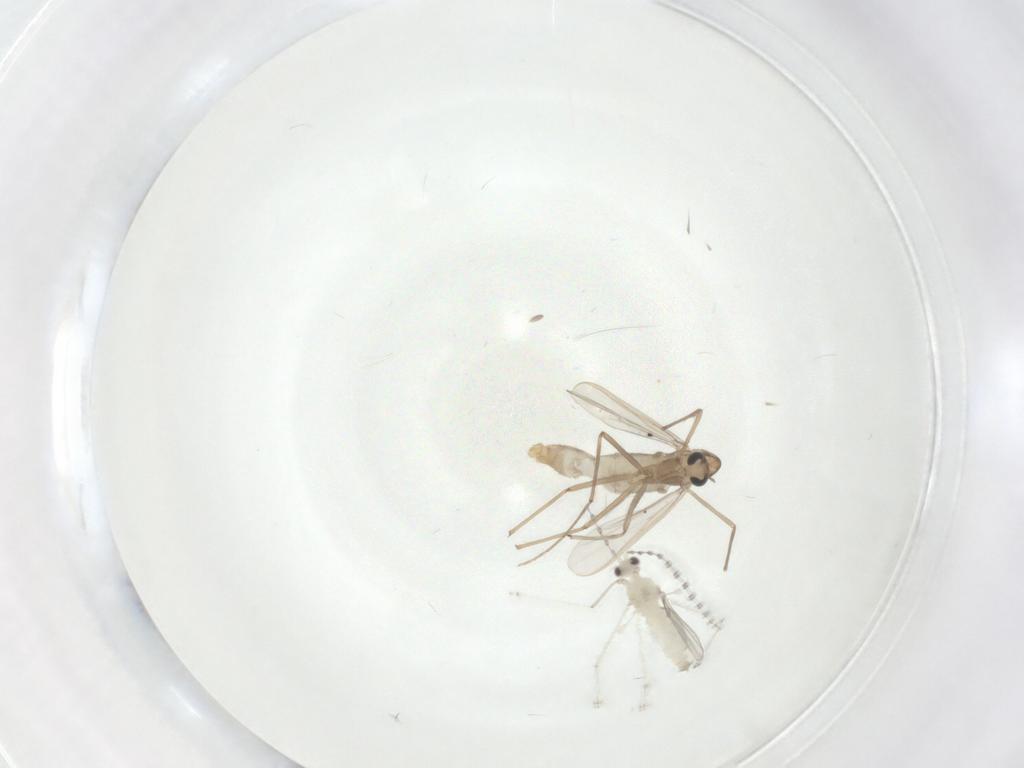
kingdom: Animalia
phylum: Arthropoda
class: Insecta
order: Diptera
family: Chironomidae
